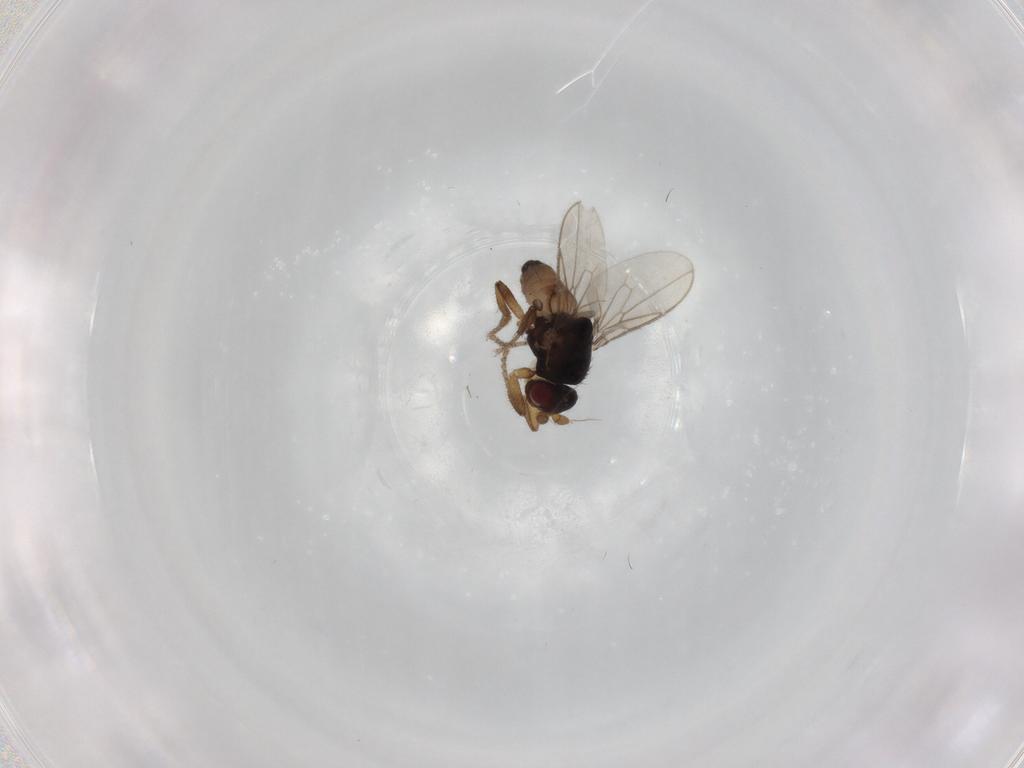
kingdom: Animalia
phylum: Arthropoda
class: Insecta
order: Diptera
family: Sphaeroceridae
